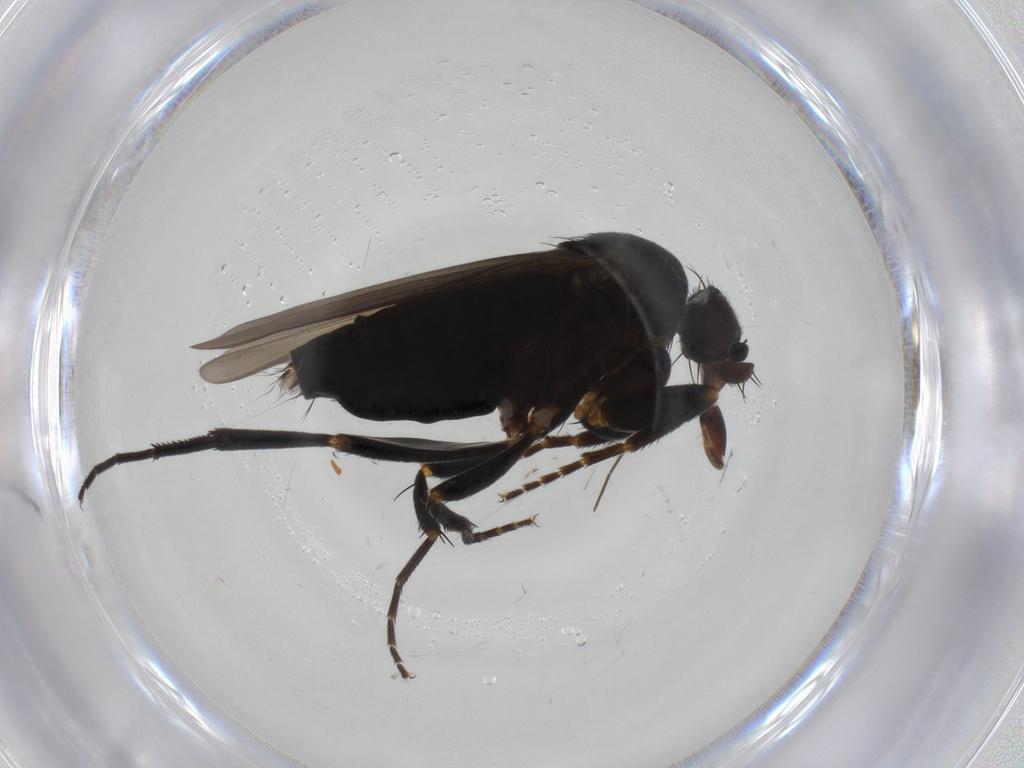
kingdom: Animalia
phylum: Arthropoda
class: Insecta
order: Diptera
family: Phoridae
